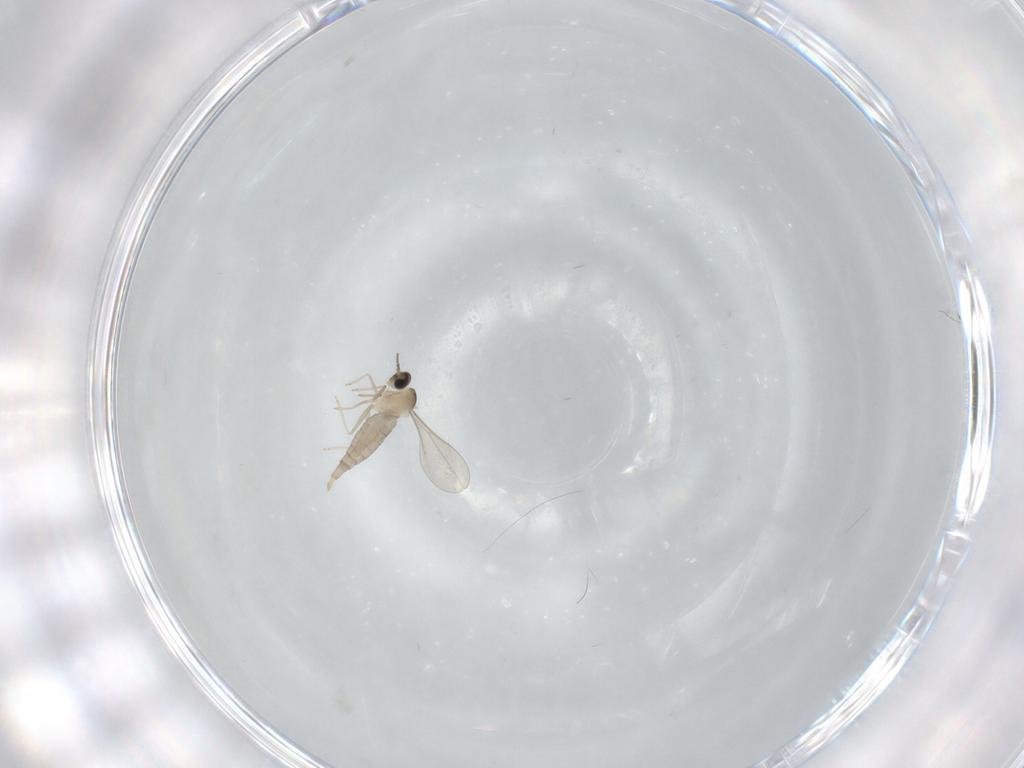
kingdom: Animalia
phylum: Arthropoda
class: Insecta
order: Diptera
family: Cecidomyiidae
